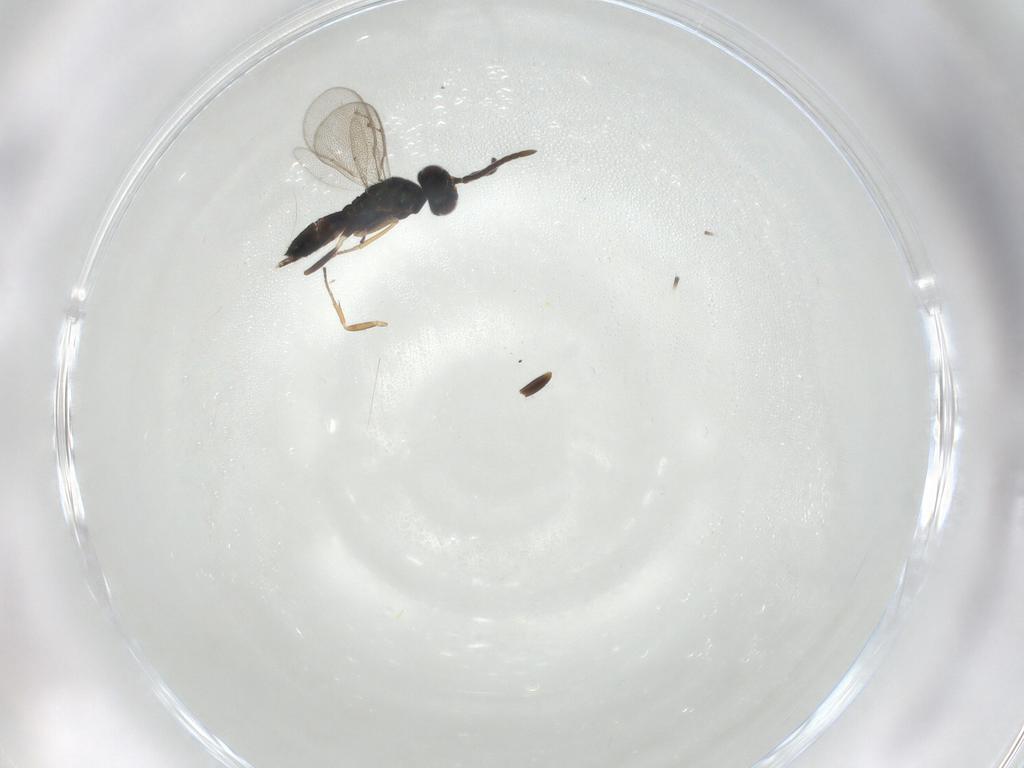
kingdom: Animalia
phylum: Arthropoda
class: Insecta
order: Hymenoptera
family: Eupelmidae
